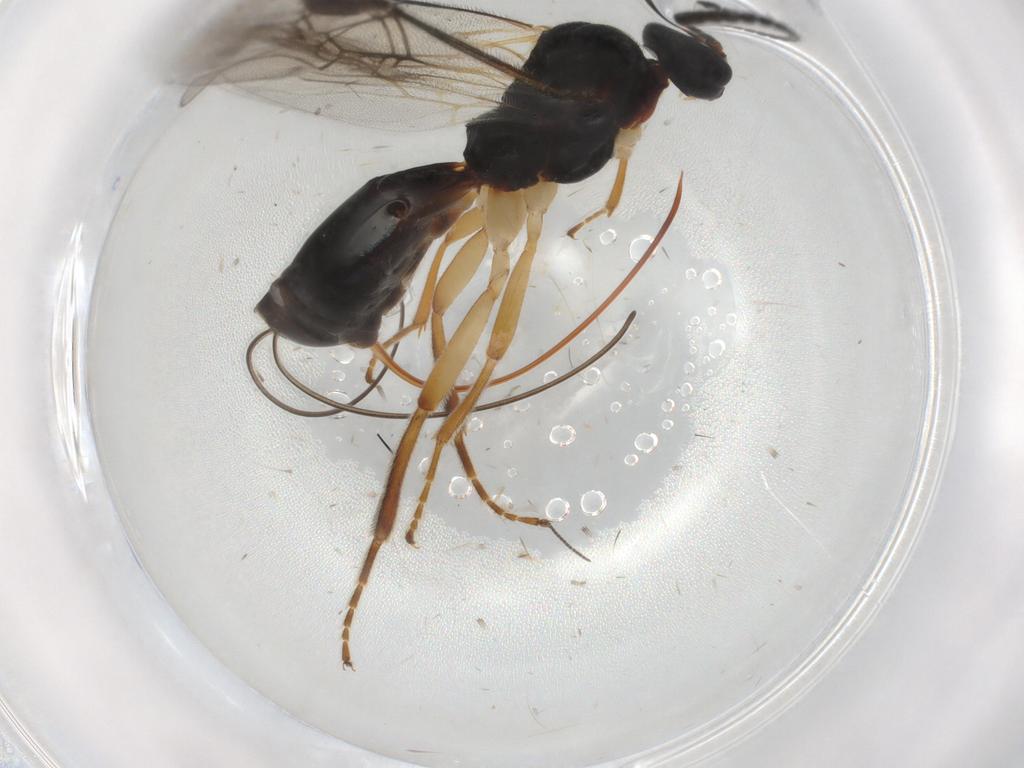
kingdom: Animalia
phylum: Arthropoda
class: Insecta
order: Hymenoptera
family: Braconidae
